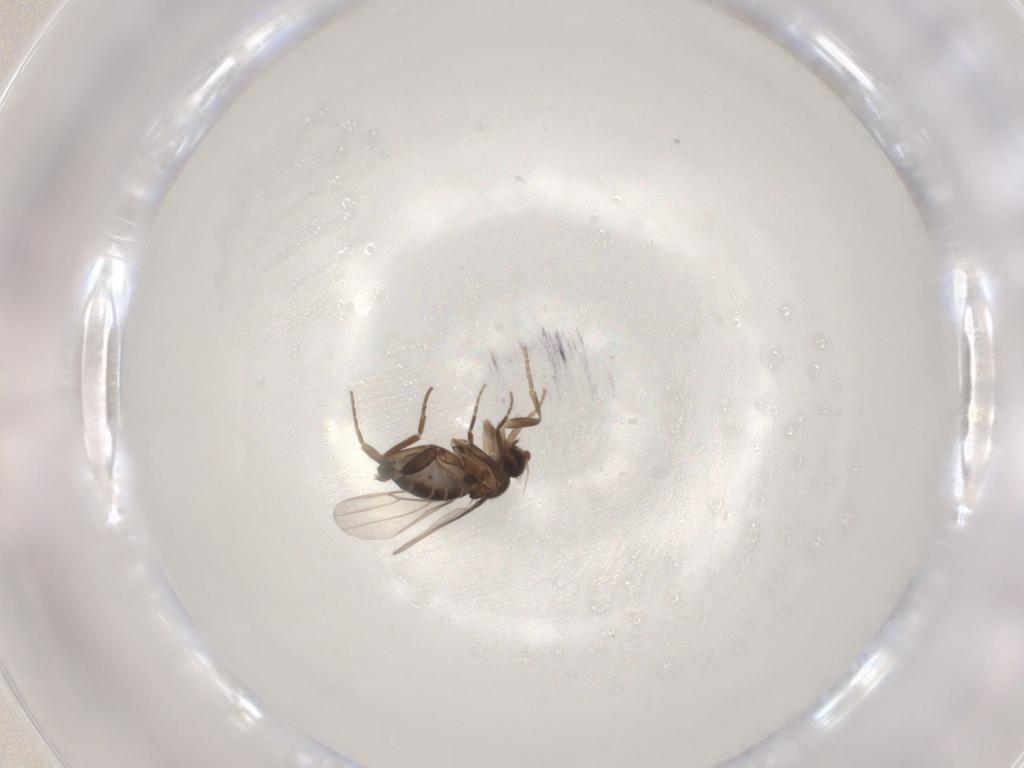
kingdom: Animalia
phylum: Arthropoda
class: Insecta
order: Diptera
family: Phoridae
